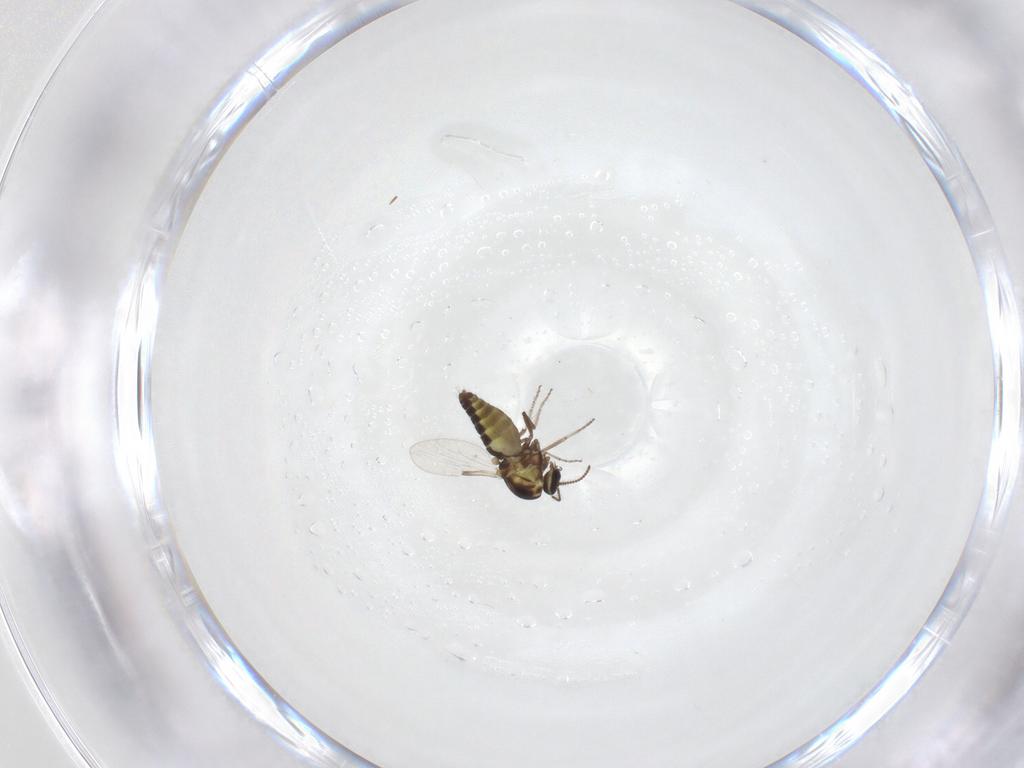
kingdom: Animalia
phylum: Arthropoda
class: Insecta
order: Diptera
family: Ceratopogonidae
